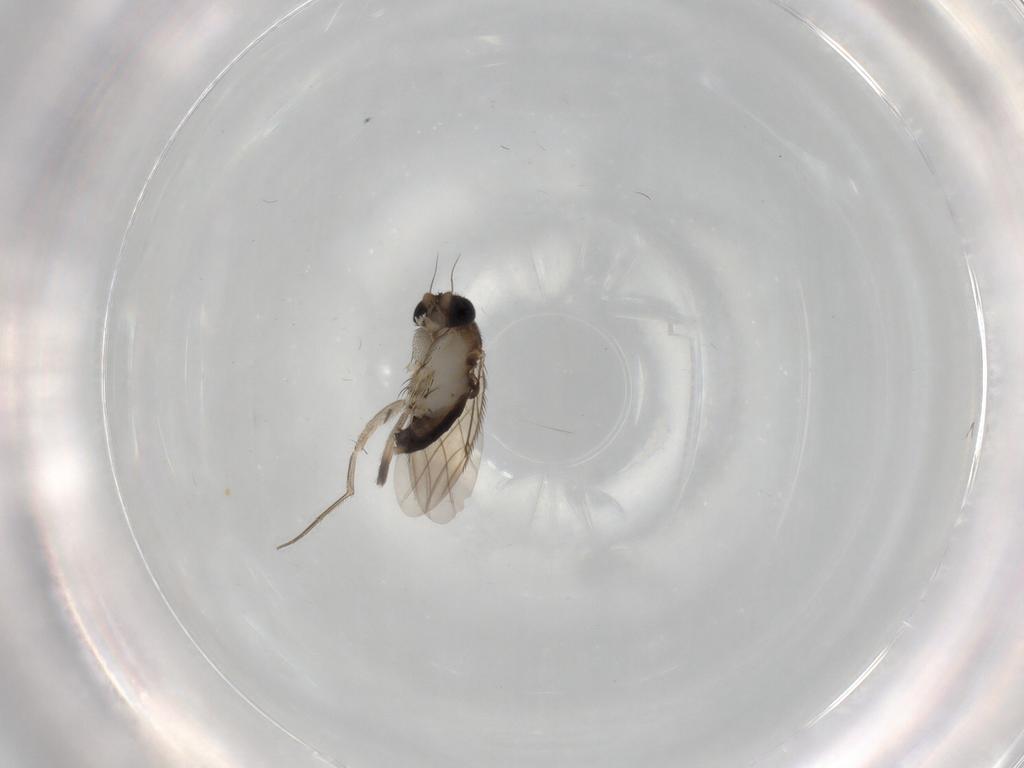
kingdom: Animalia
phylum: Arthropoda
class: Insecta
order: Diptera
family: Phoridae
